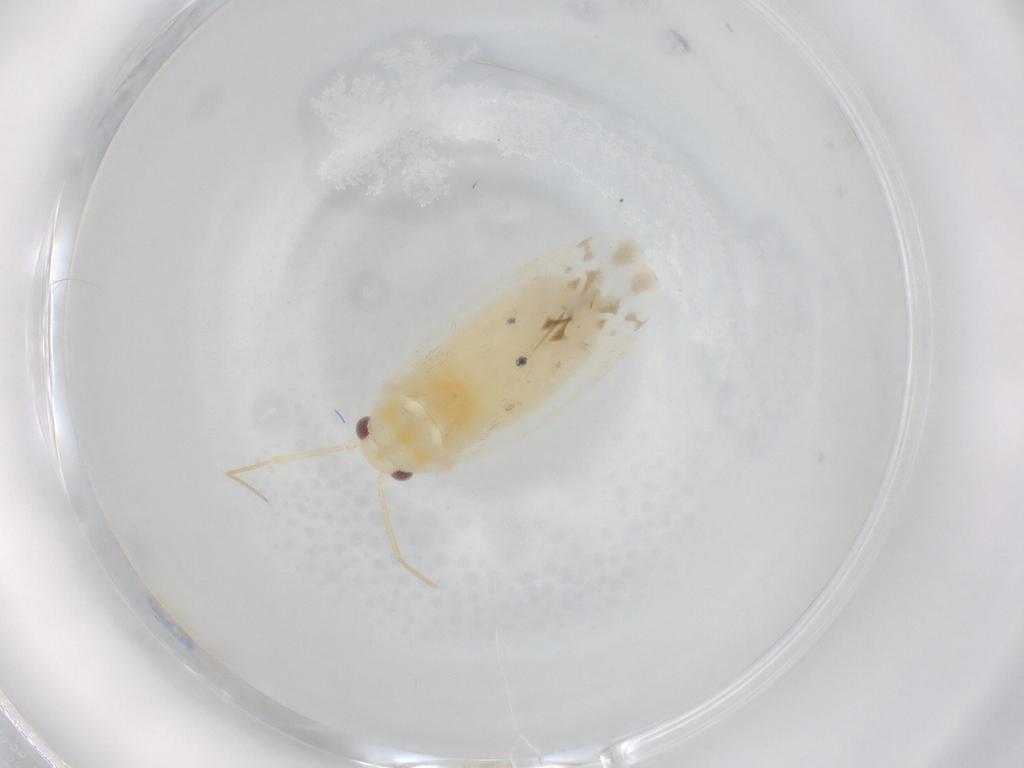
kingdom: Animalia
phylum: Arthropoda
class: Insecta
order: Hemiptera
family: Miridae
